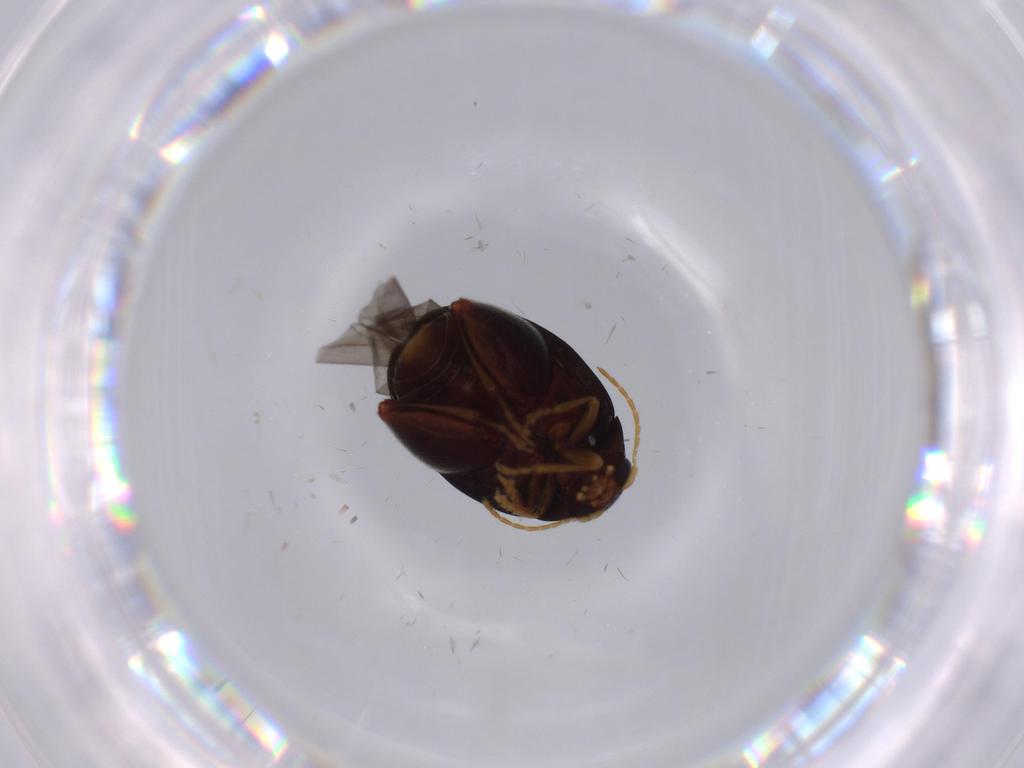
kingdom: Animalia
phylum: Arthropoda
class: Insecta
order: Coleoptera
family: Chrysomelidae
